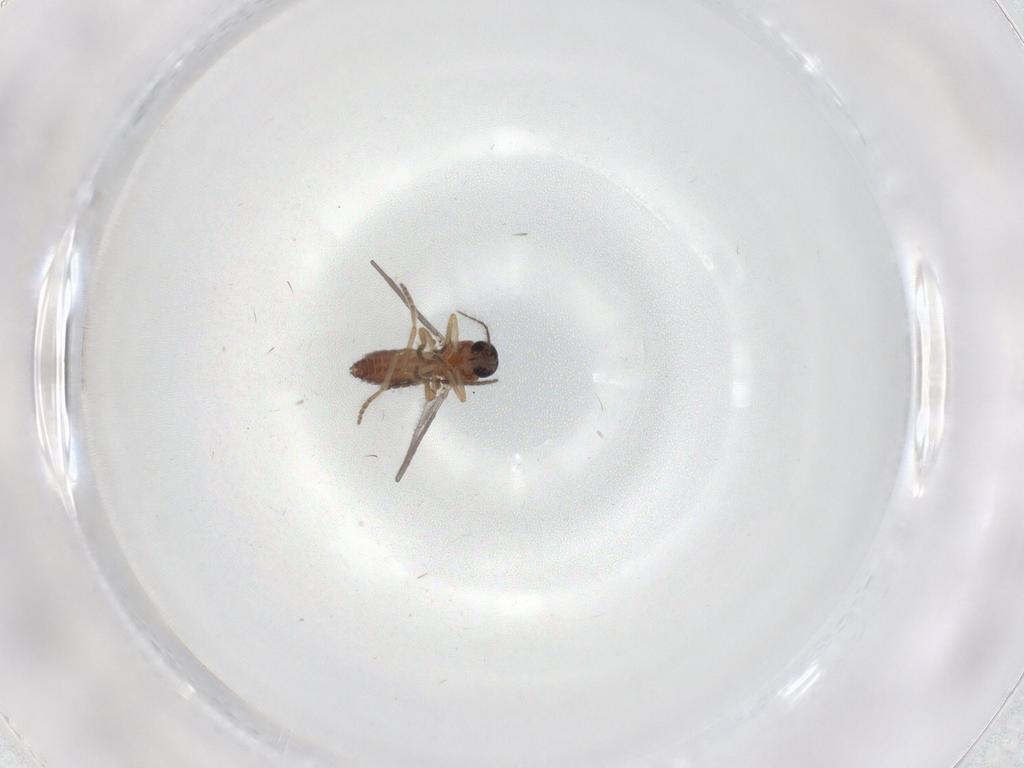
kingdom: Animalia
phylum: Arthropoda
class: Insecta
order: Diptera
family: Ceratopogonidae
